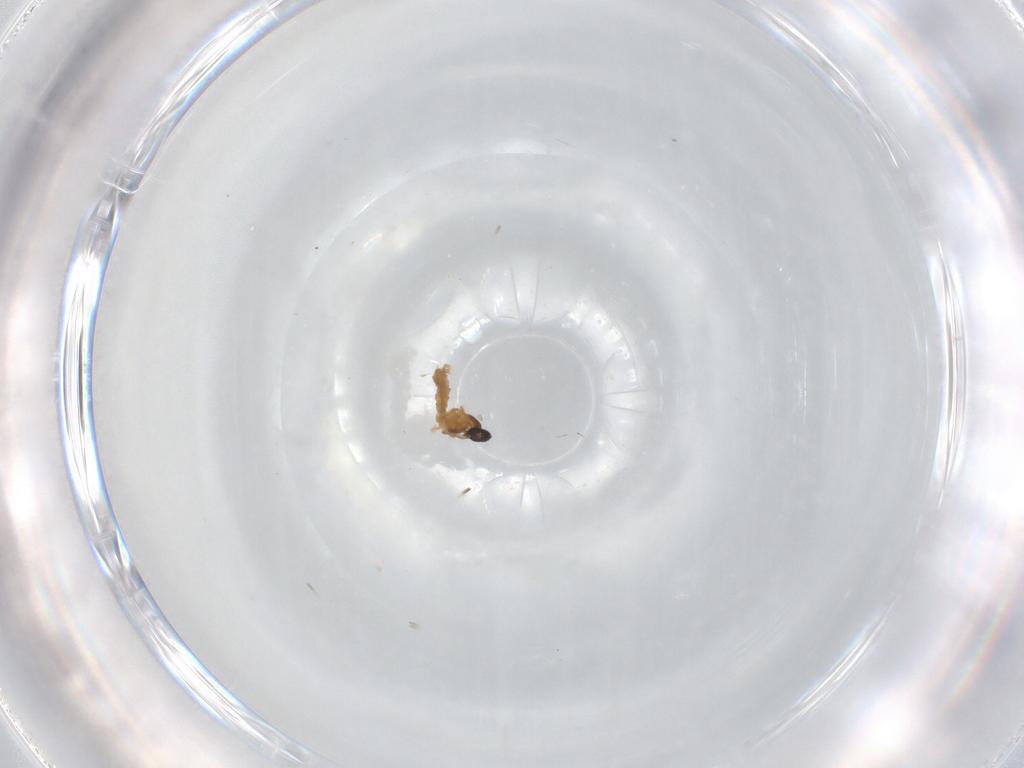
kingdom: Animalia
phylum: Arthropoda
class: Insecta
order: Diptera
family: Cecidomyiidae
